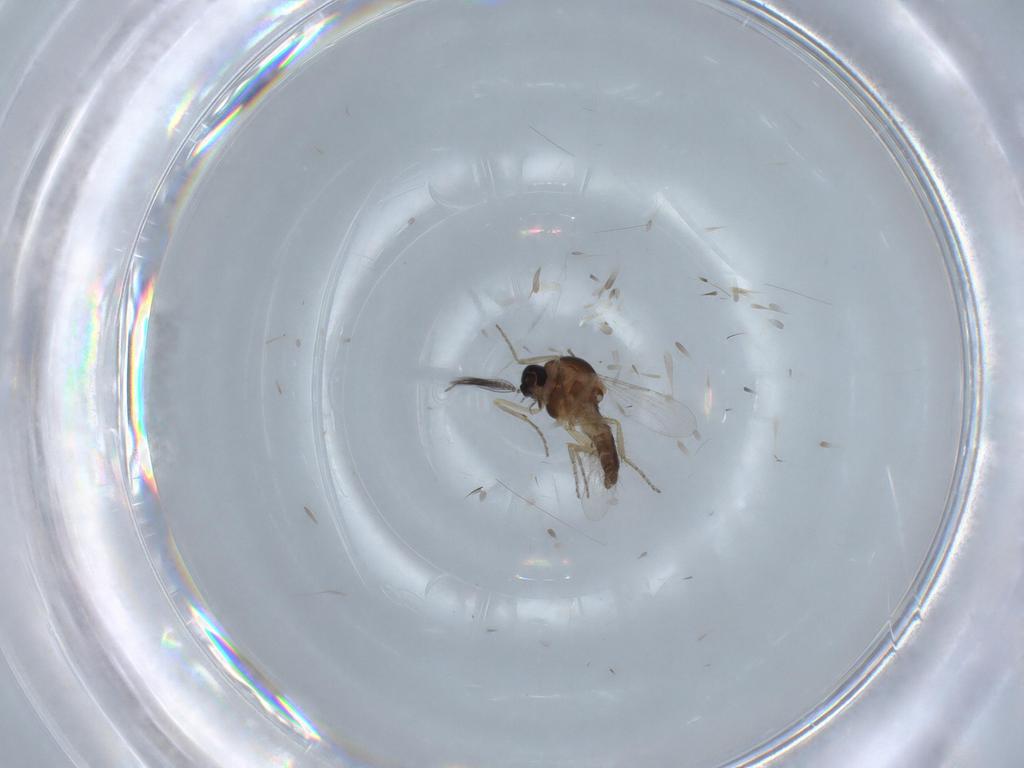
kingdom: Animalia
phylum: Arthropoda
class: Insecta
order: Diptera
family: Ceratopogonidae
